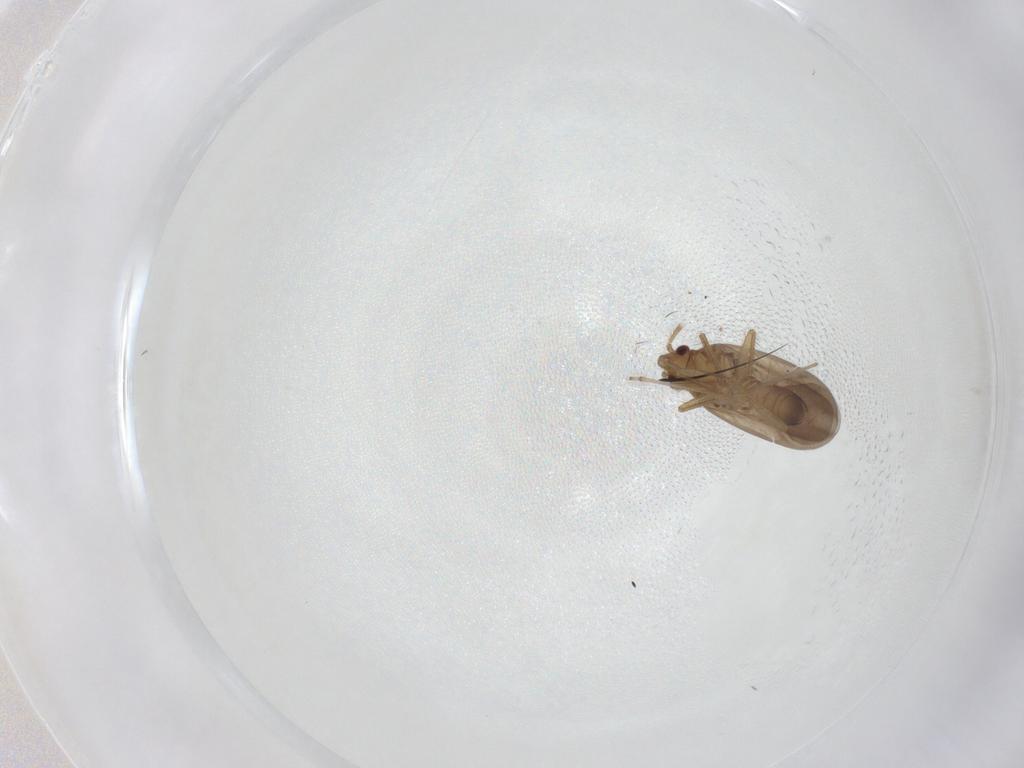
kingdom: Animalia
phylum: Arthropoda
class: Insecta
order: Hemiptera
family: Ceratocombidae
